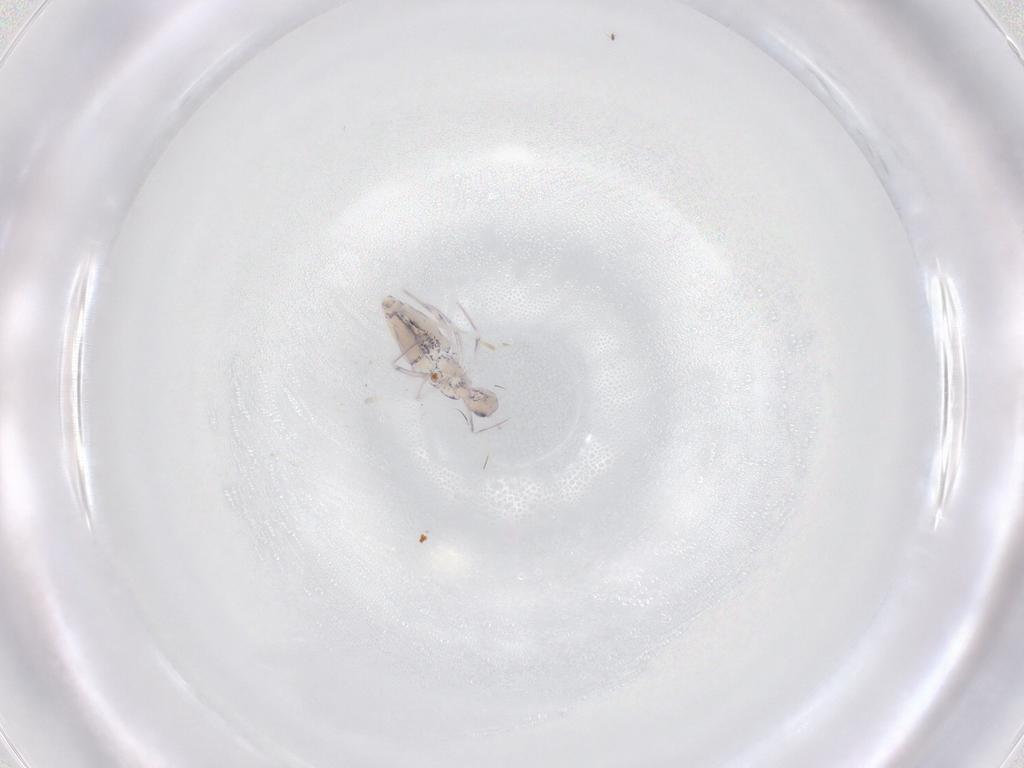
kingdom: Animalia
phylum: Arthropoda
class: Collembola
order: Entomobryomorpha
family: Paronellidae
